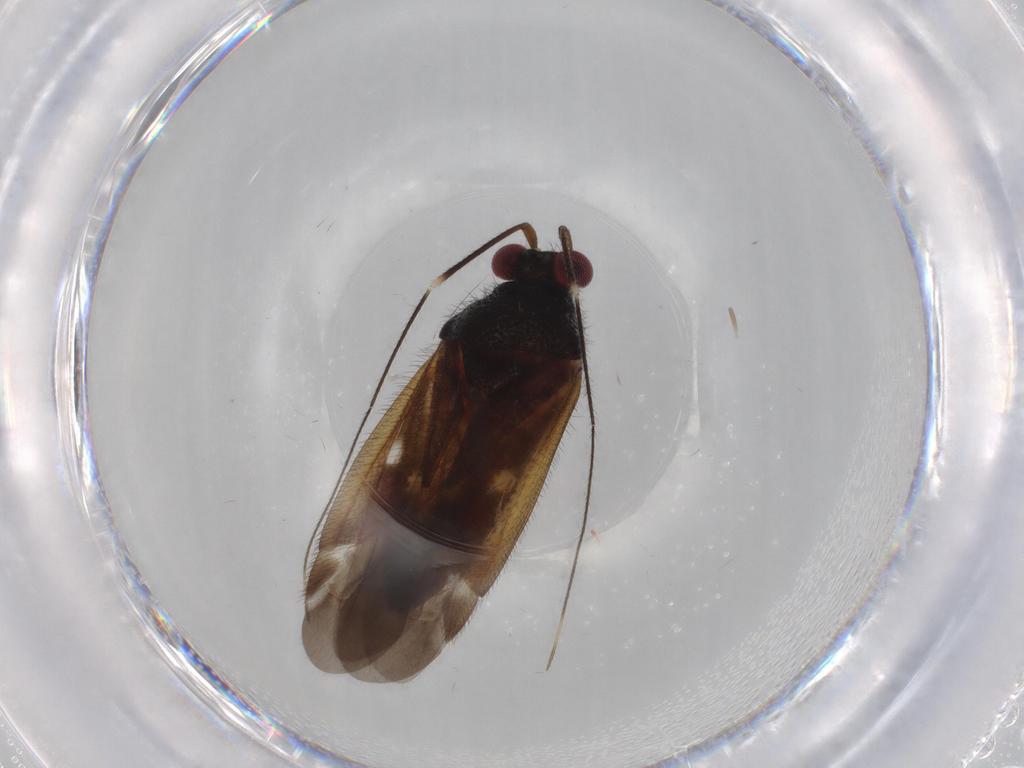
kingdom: Animalia
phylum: Arthropoda
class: Insecta
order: Hemiptera
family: Miridae
